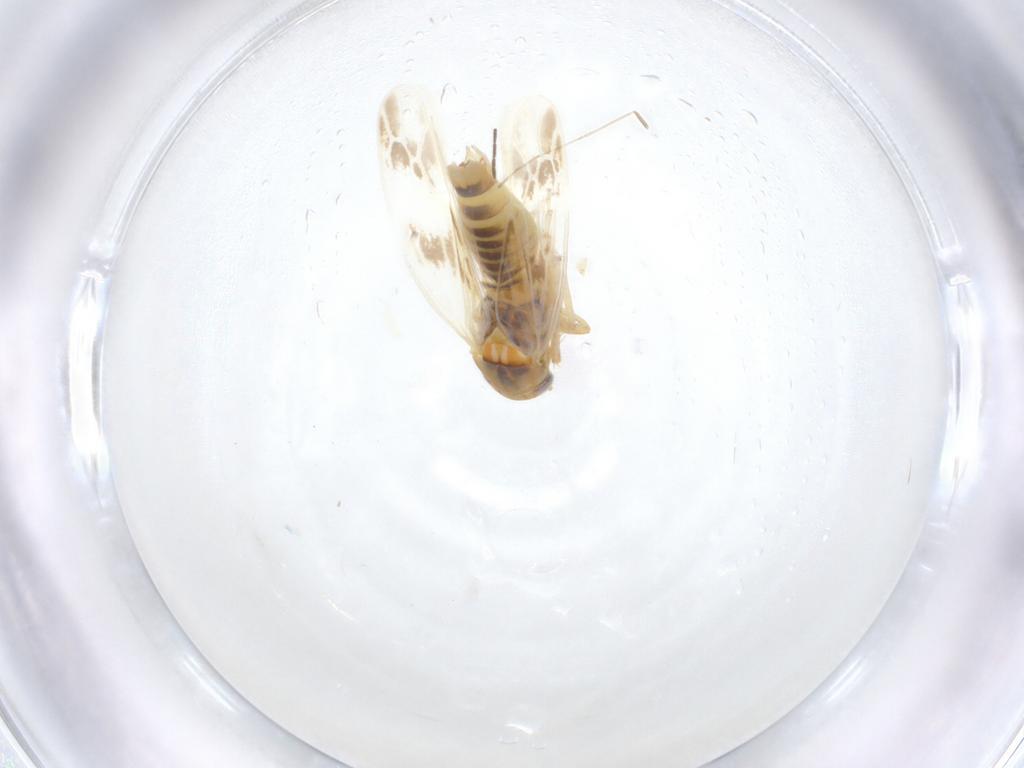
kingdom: Animalia
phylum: Arthropoda
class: Insecta
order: Hemiptera
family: Cicadellidae
